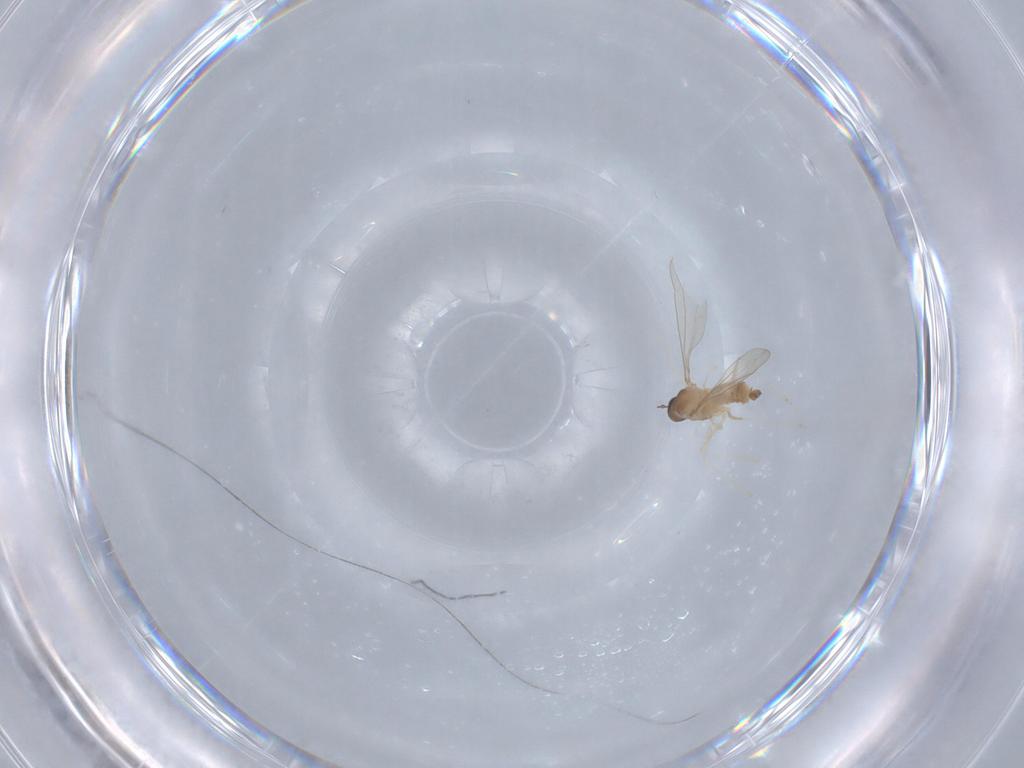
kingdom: Animalia
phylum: Arthropoda
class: Insecta
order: Diptera
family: Cecidomyiidae
